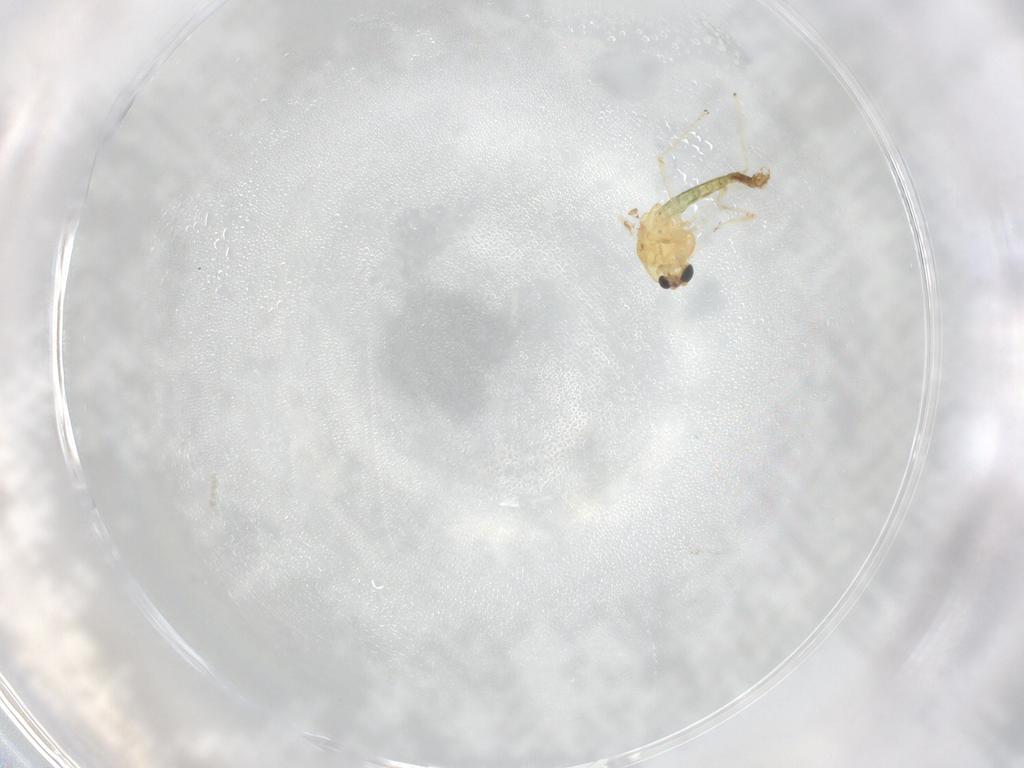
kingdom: Animalia
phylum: Arthropoda
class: Insecta
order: Diptera
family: Chironomidae
